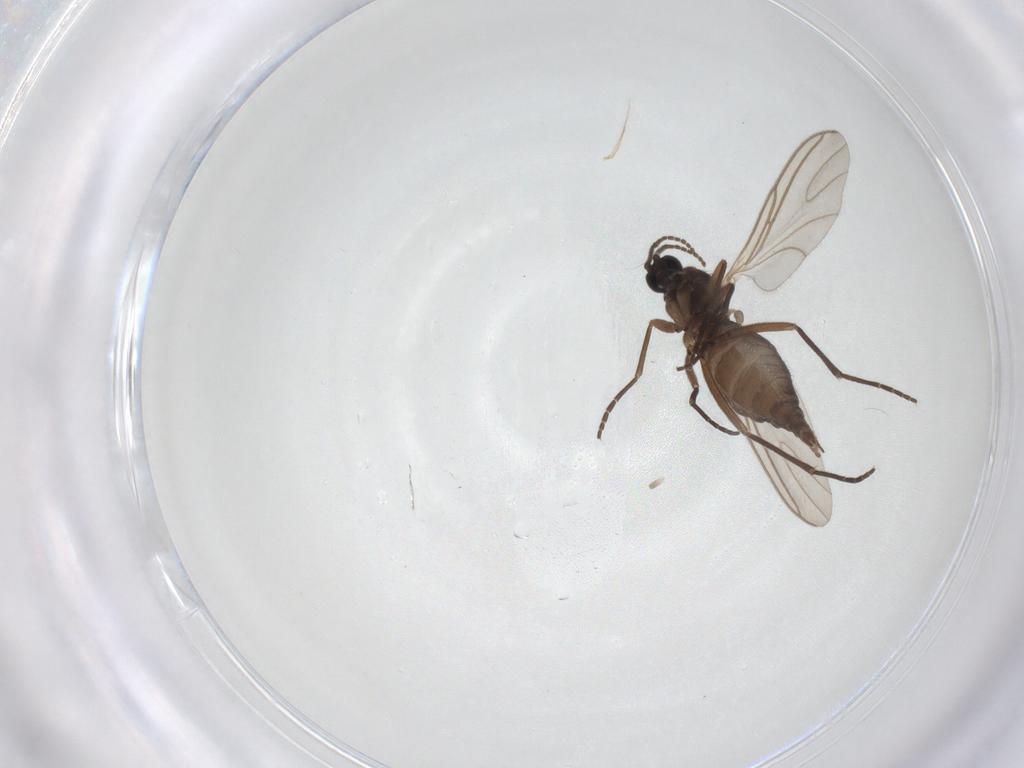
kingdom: Animalia
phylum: Arthropoda
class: Insecta
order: Diptera
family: Sciaridae
